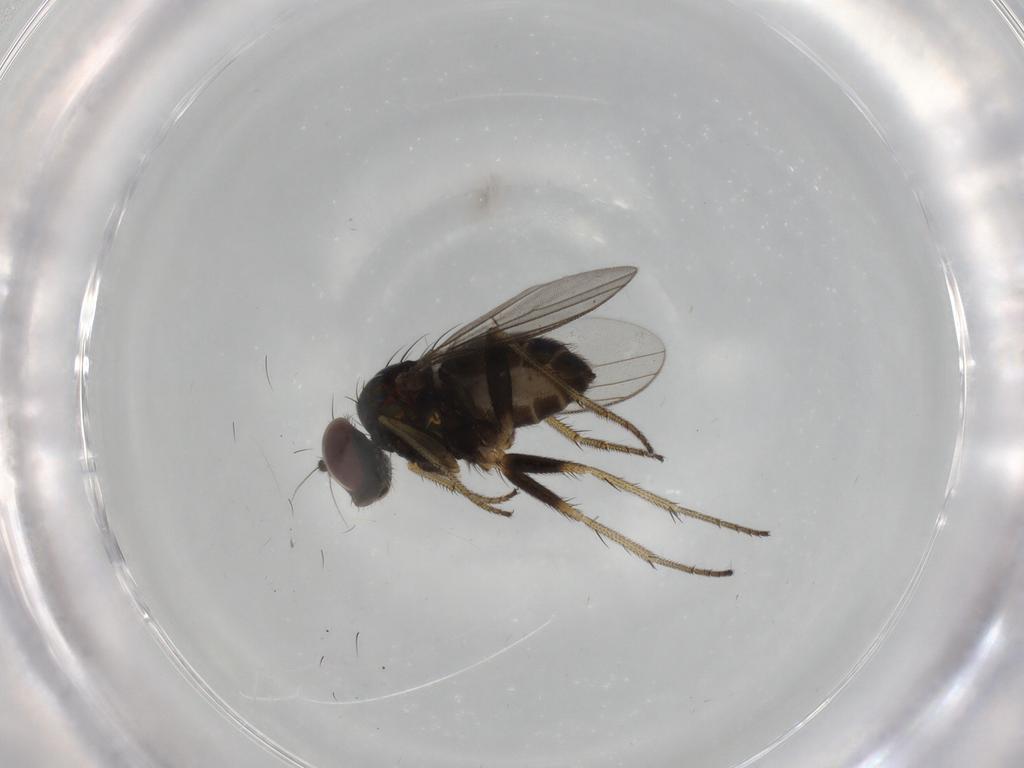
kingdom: Animalia
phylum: Arthropoda
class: Insecta
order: Diptera
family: Dolichopodidae
